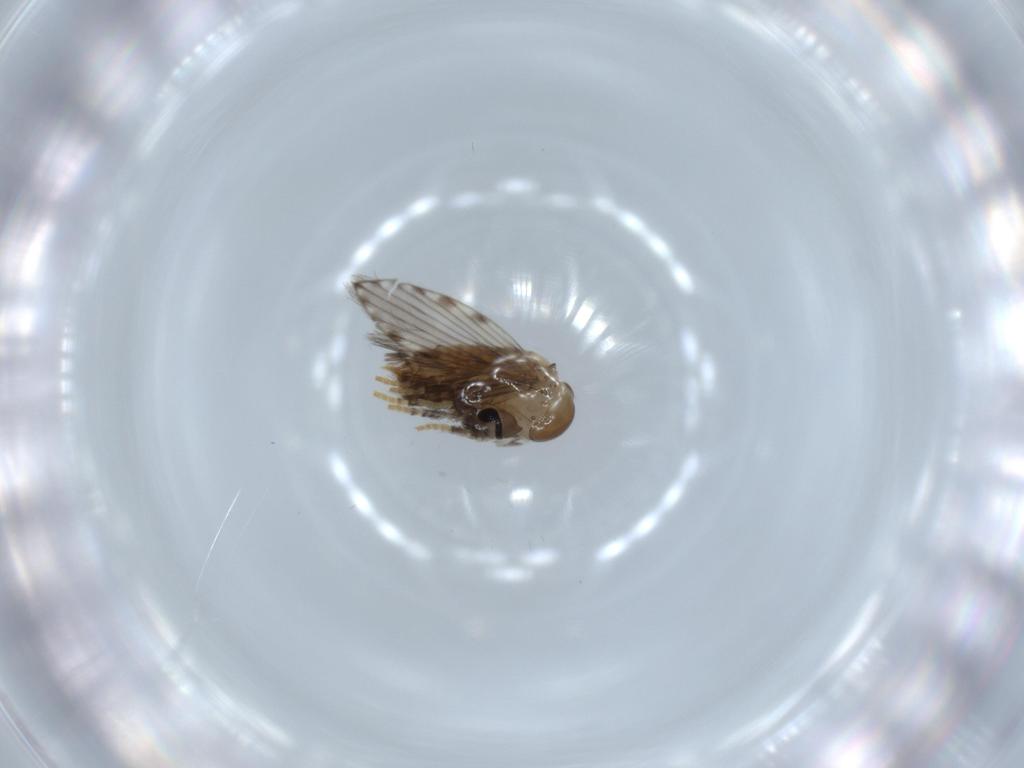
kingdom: Animalia
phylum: Arthropoda
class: Insecta
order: Diptera
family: Psychodidae
